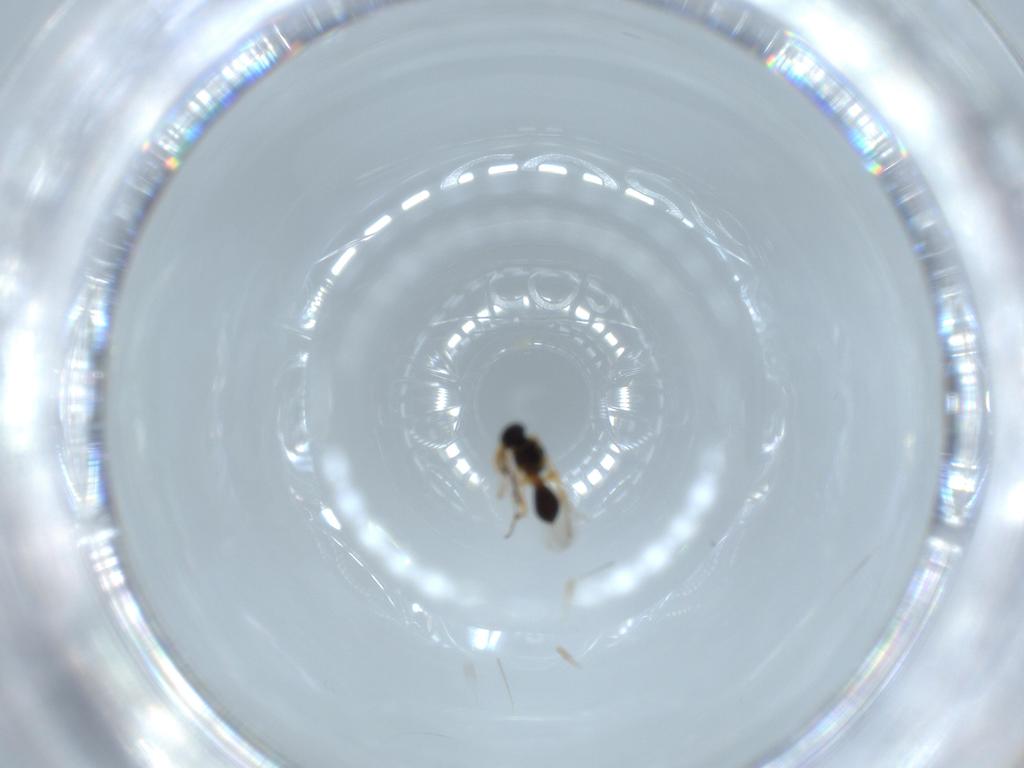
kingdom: Animalia
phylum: Arthropoda
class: Insecta
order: Hymenoptera
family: Platygastridae
